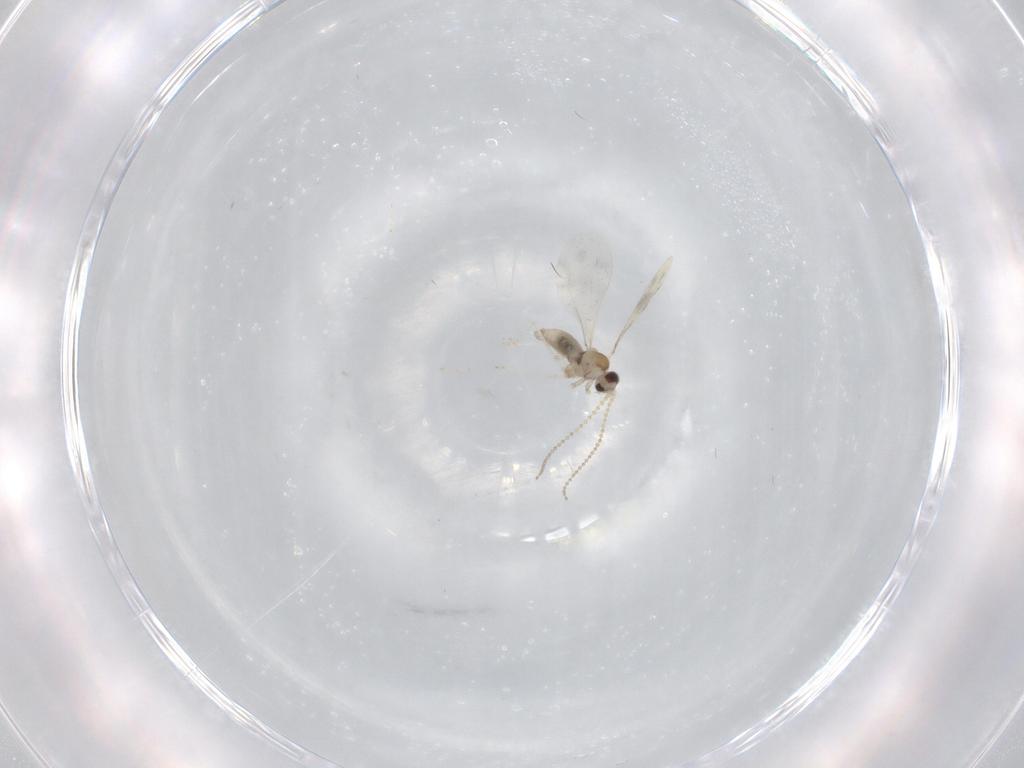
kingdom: Animalia
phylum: Arthropoda
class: Insecta
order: Diptera
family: Cecidomyiidae
